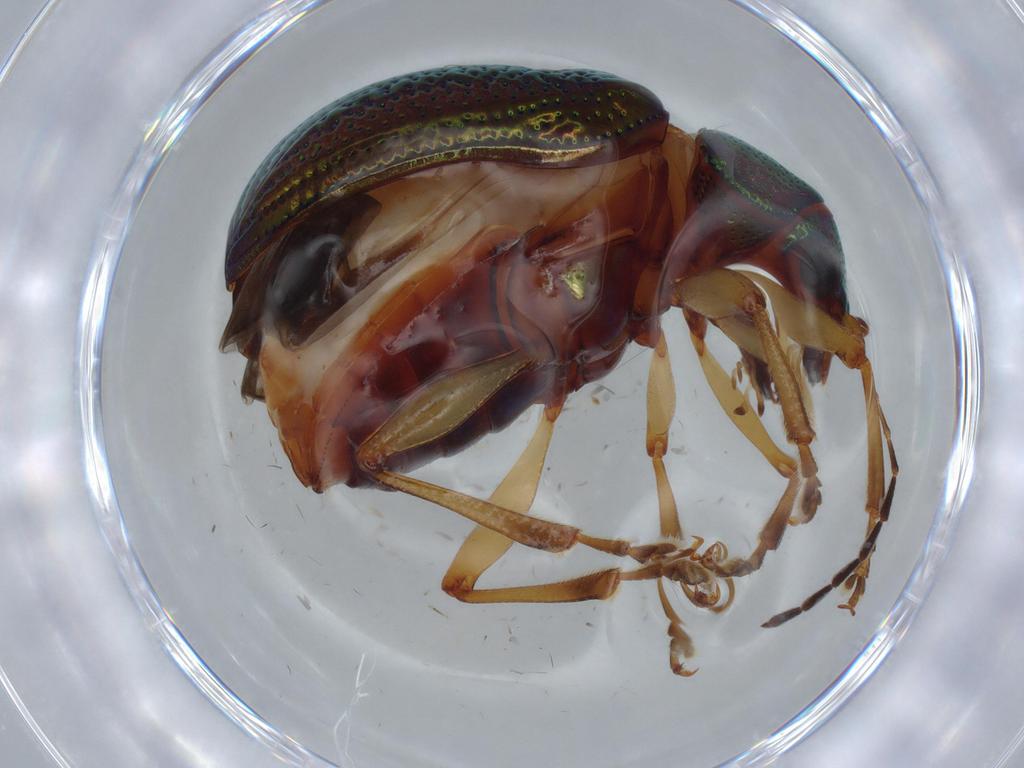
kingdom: Animalia
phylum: Arthropoda
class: Insecta
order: Coleoptera
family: Chrysomelidae
